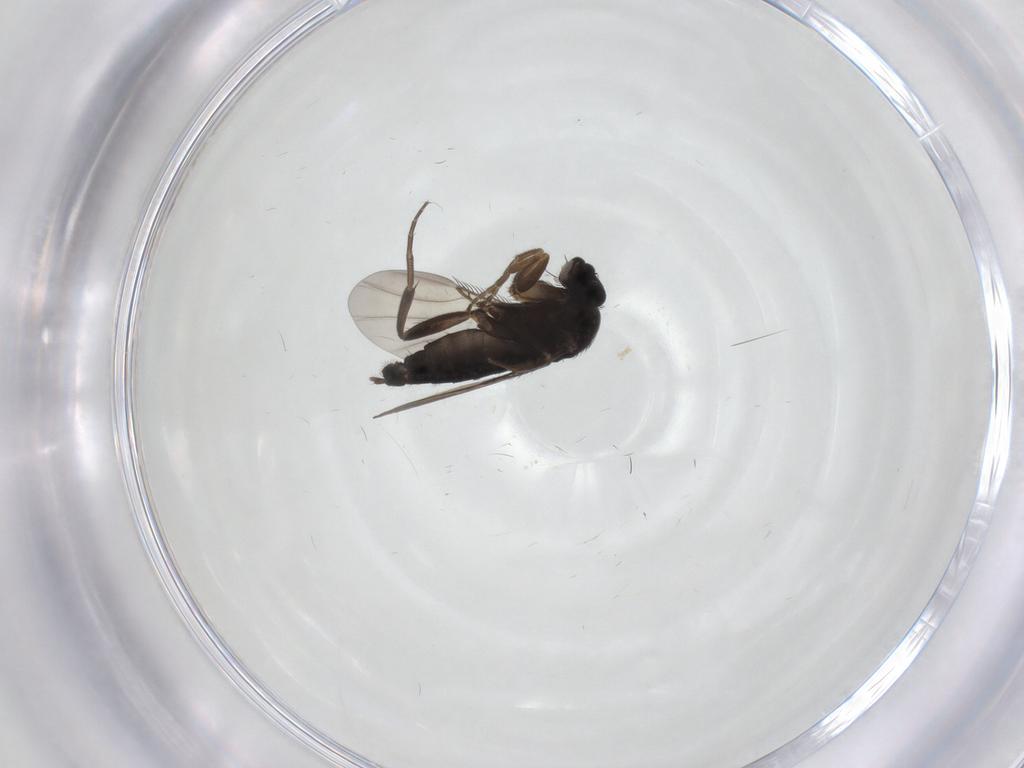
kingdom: Animalia
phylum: Arthropoda
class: Insecta
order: Diptera
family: Phoridae
